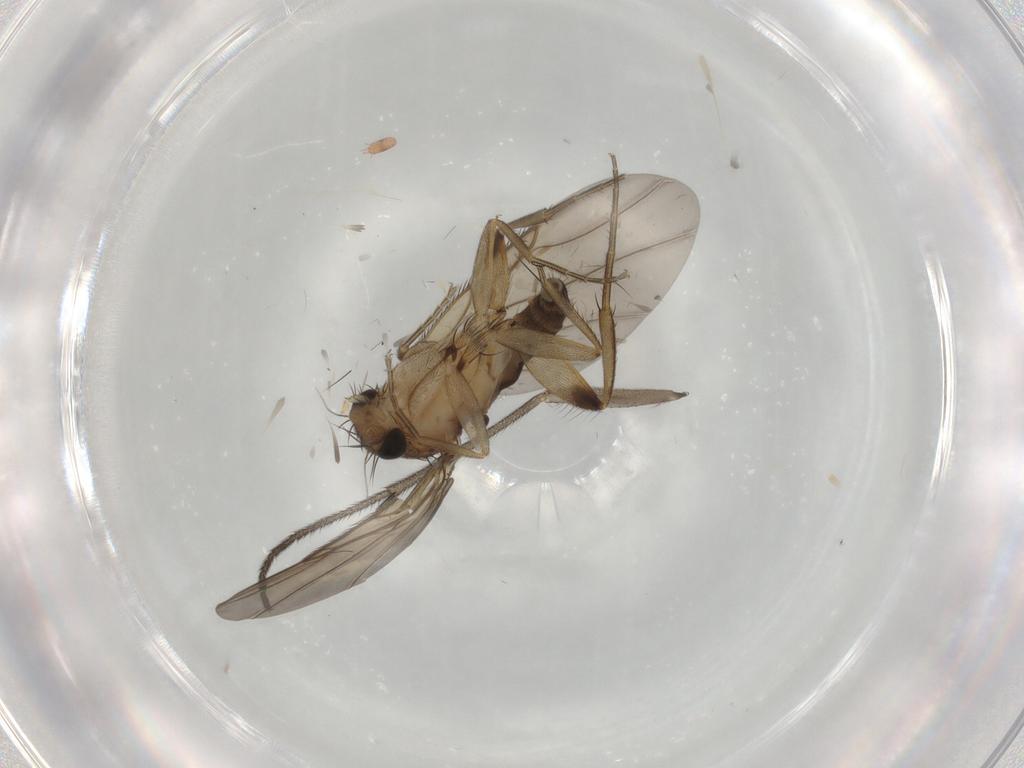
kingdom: Animalia
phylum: Arthropoda
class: Insecta
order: Diptera
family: Phoridae
